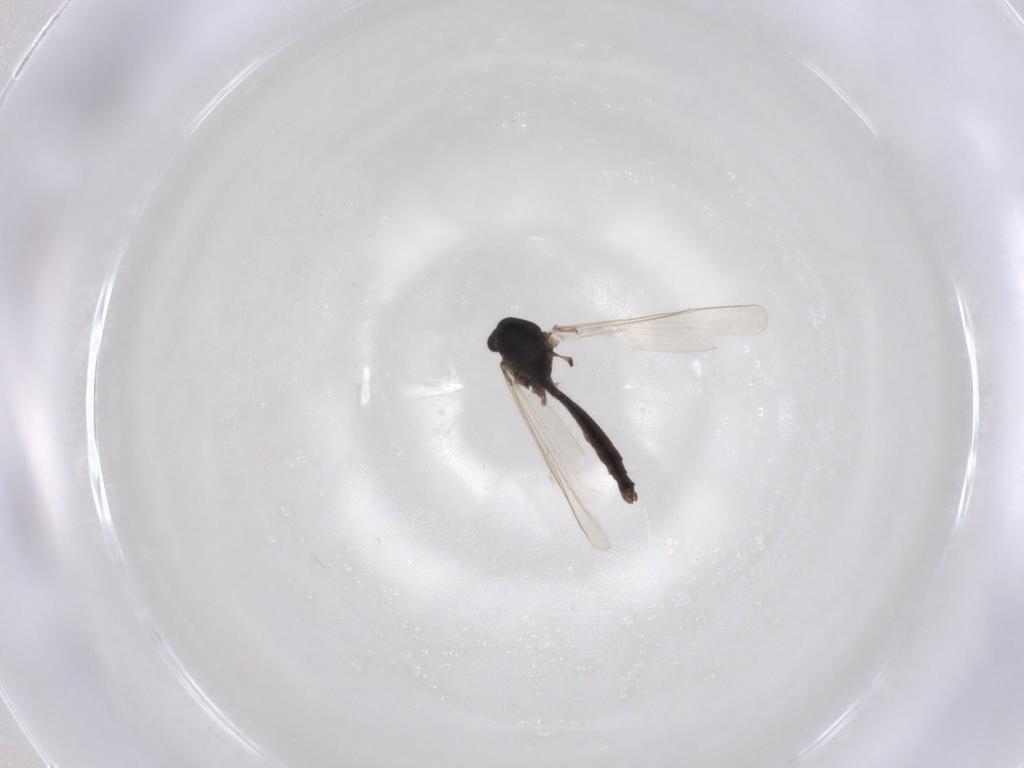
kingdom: Animalia
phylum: Arthropoda
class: Insecta
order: Diptera
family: Chironomidae
